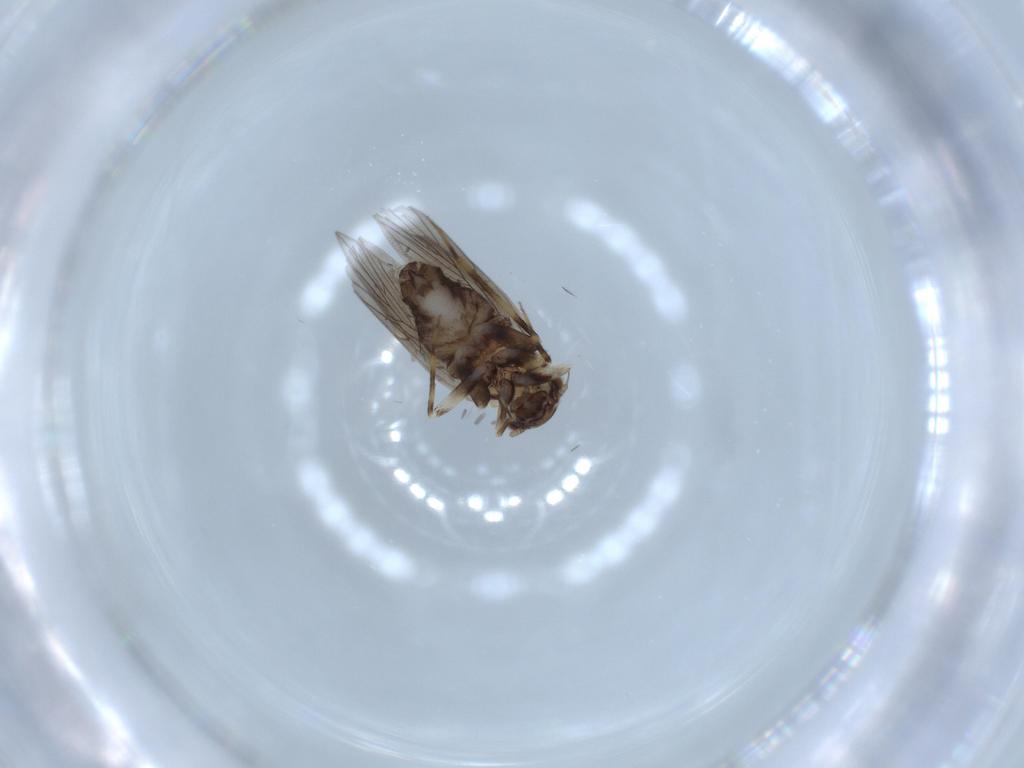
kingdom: Animalia
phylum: Arthropoda
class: Insecta
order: Psocodea
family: Lepidopsocidae
